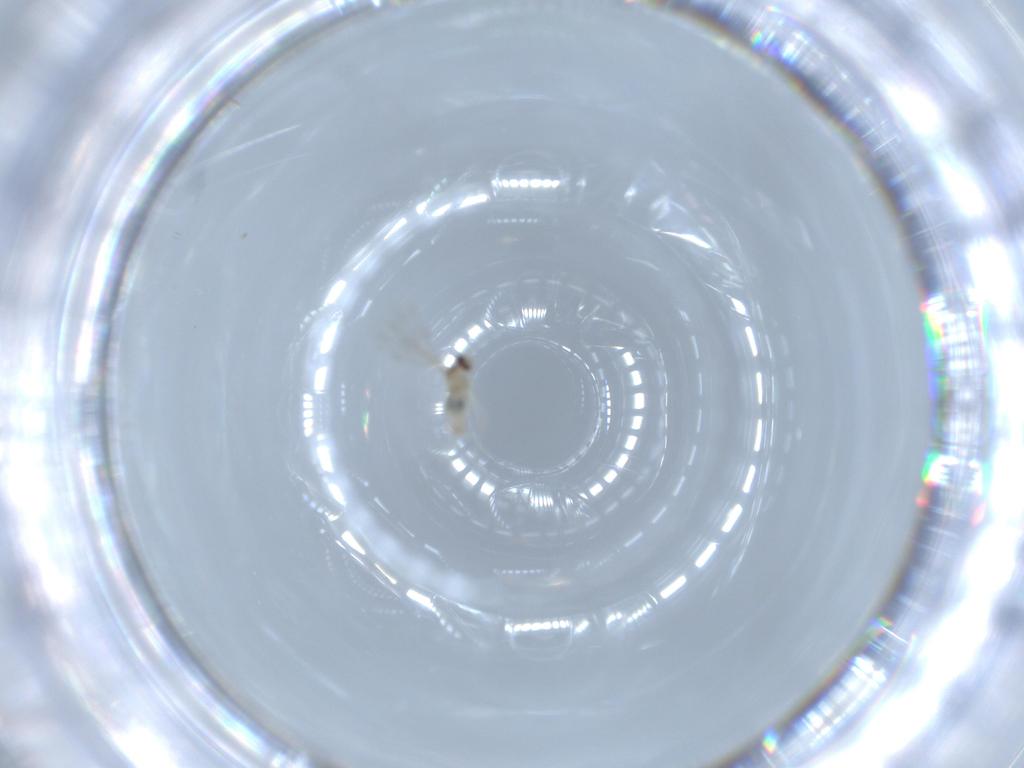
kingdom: Animalia
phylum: Arthropoda
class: Insecta
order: Diptera
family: Cecidomyiidae
